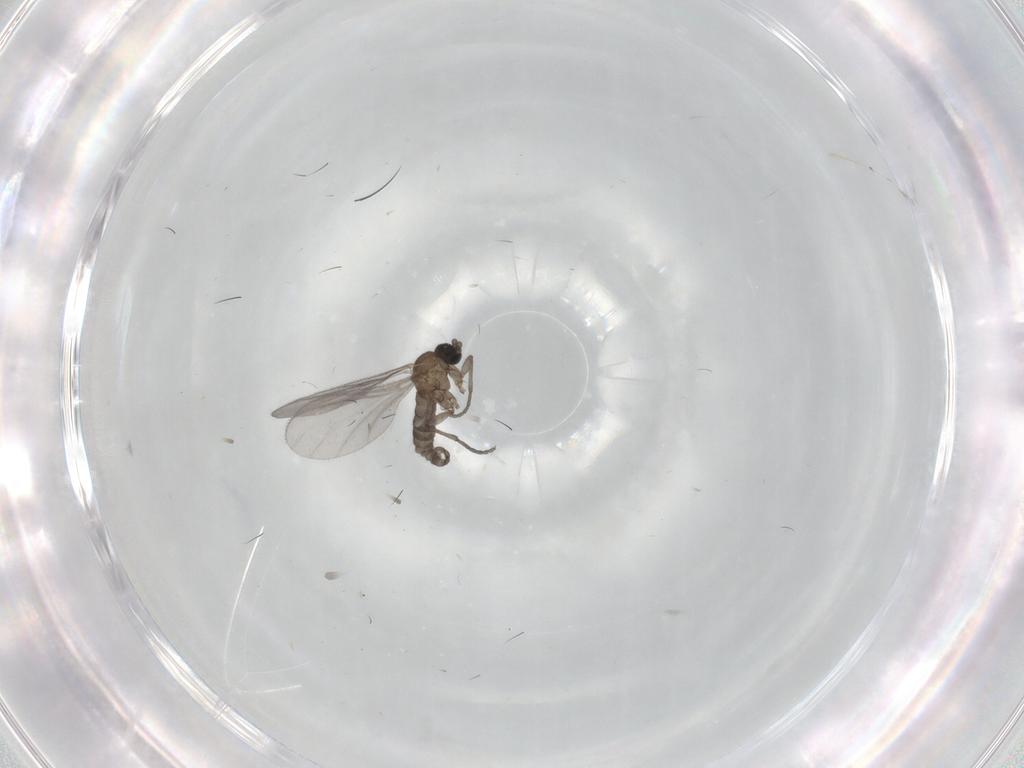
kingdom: Animalia
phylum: Arthropoda
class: Insecta
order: Diptera
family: Sciaridae
